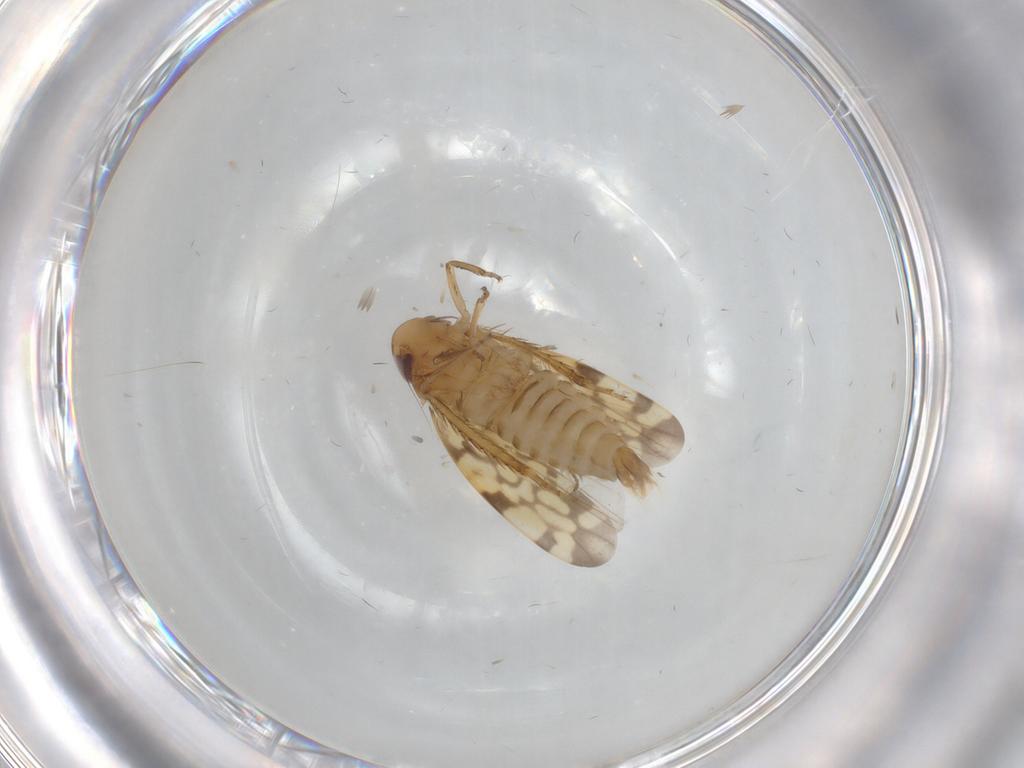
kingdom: Animalia
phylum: Arthropoda
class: Insecta
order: Hemiptera
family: Cicadellidae
